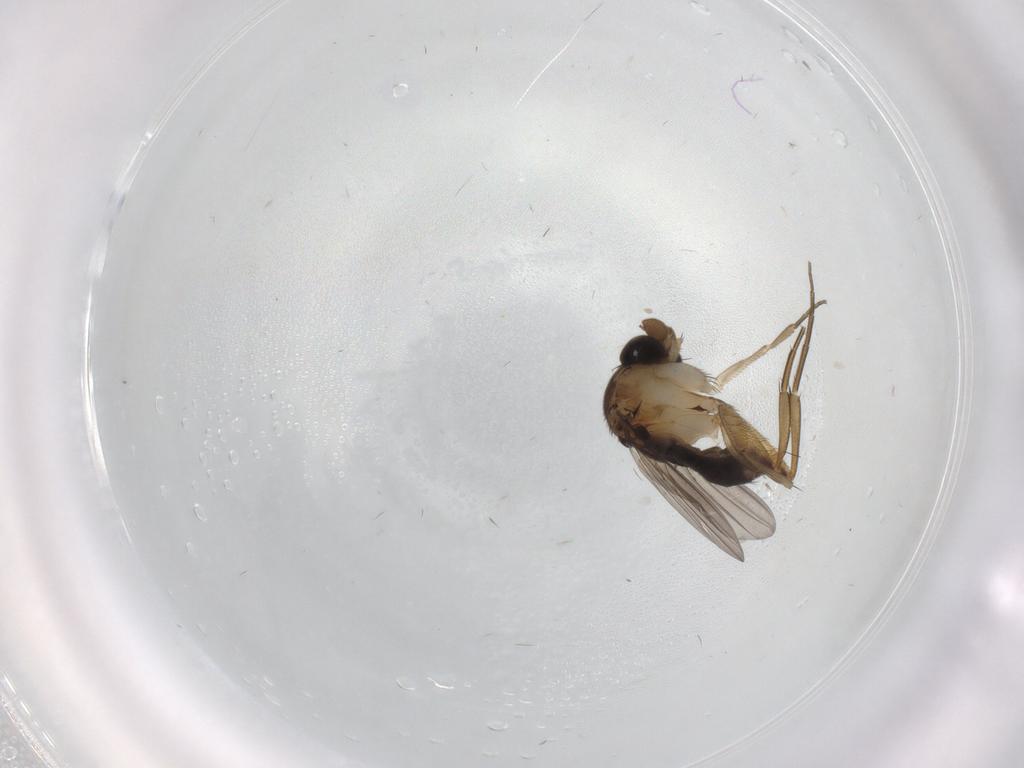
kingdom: Animalia
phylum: Arthropoda
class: Insecta
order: Diptera
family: Phoridae
